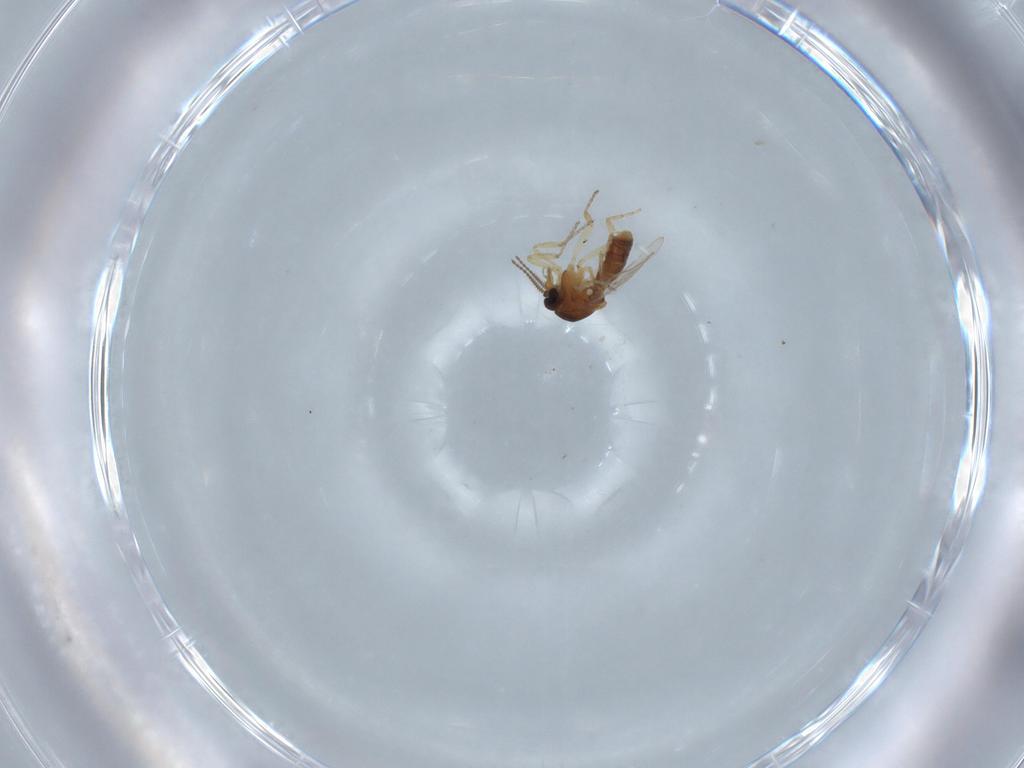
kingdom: Animalia
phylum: Arthropoda
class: Insecta
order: Diptera
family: Ceratopogonidae
